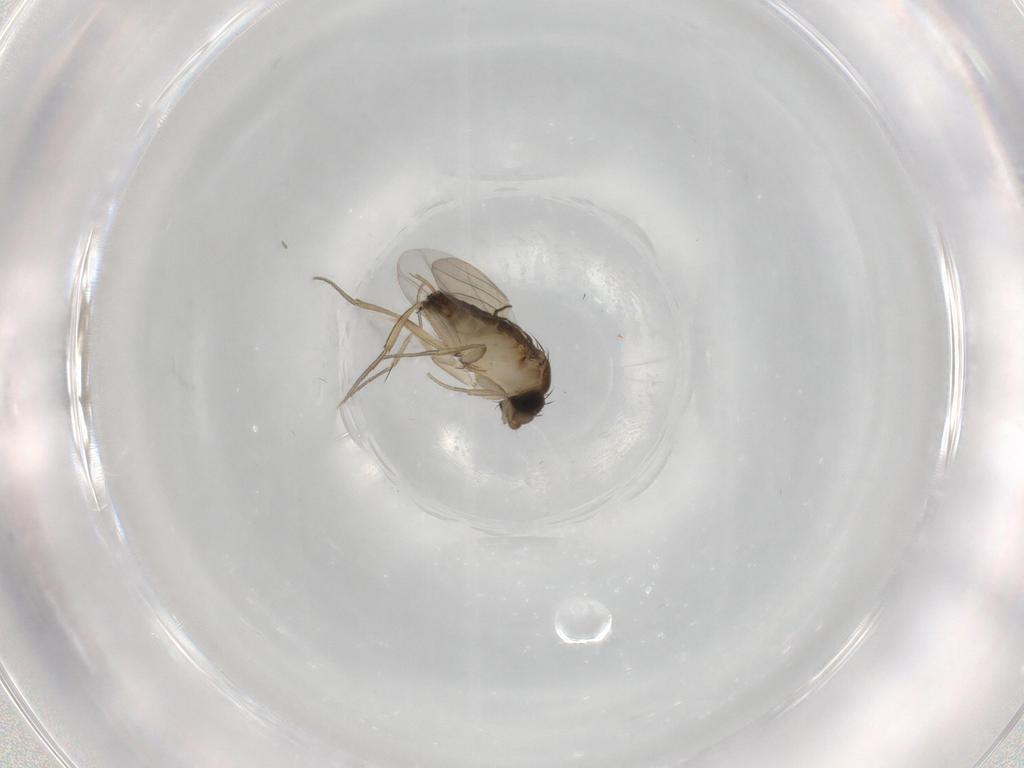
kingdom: Animalia
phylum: Arthropoda
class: Insecta
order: Diptera
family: Phoridae
